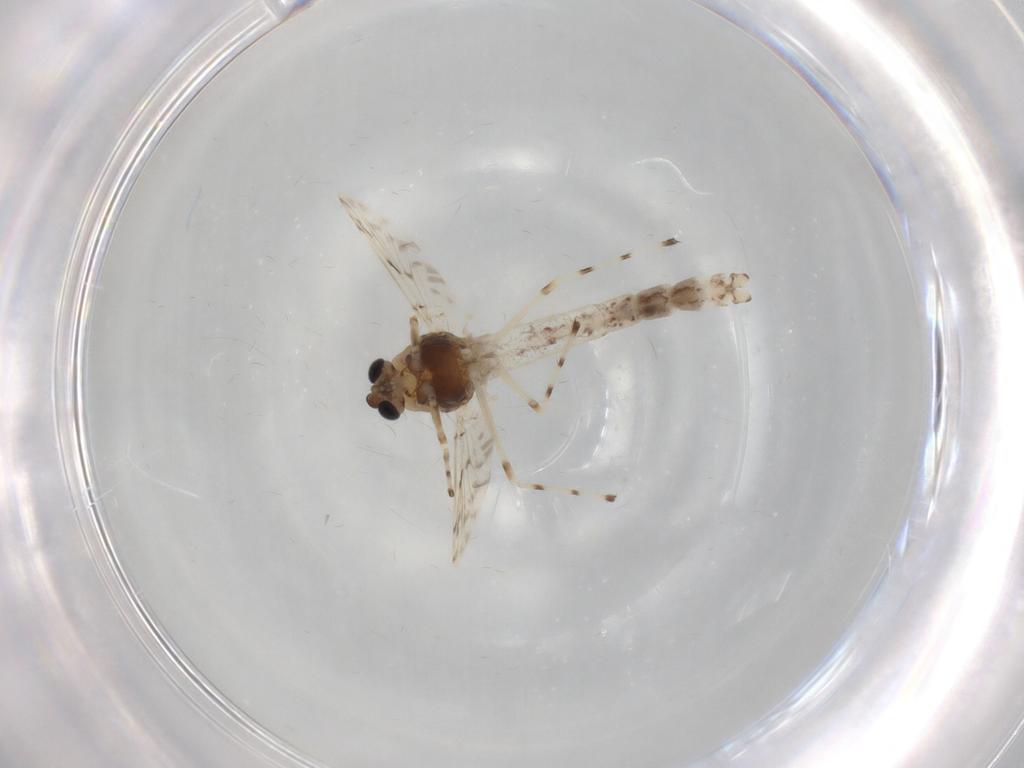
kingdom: Animalia
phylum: Arthropoda
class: Insecta
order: Diptera
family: Chironomidae
